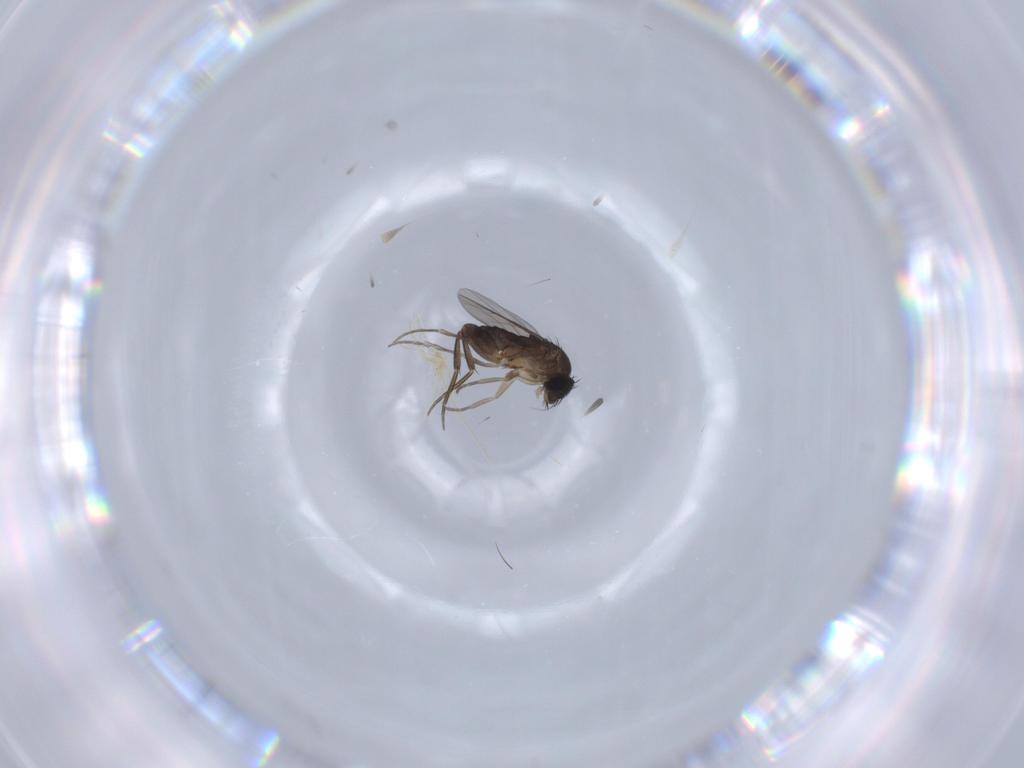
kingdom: Animalia
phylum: Arthropoda
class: Insecta
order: Diptera
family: Phoridae
